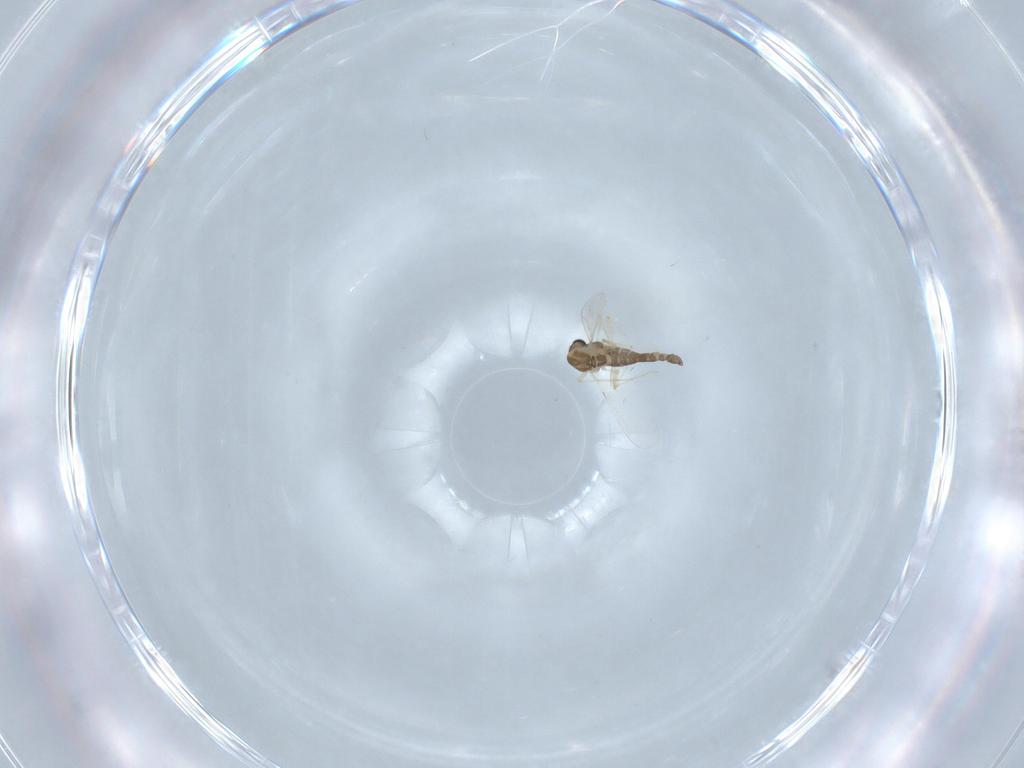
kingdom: Animalia
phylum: Arthropoda
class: Insecta
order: Diptera
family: Chironomidae
